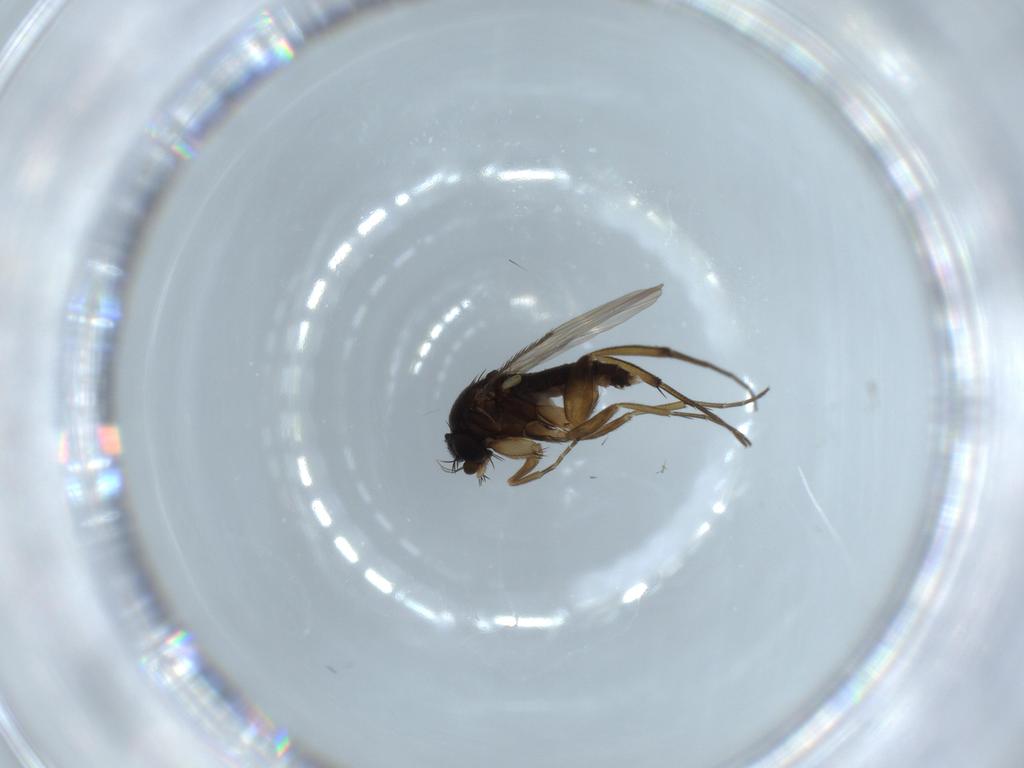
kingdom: Animalia
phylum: Arthropoda
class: Insecta
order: Diptera
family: Phoridae
